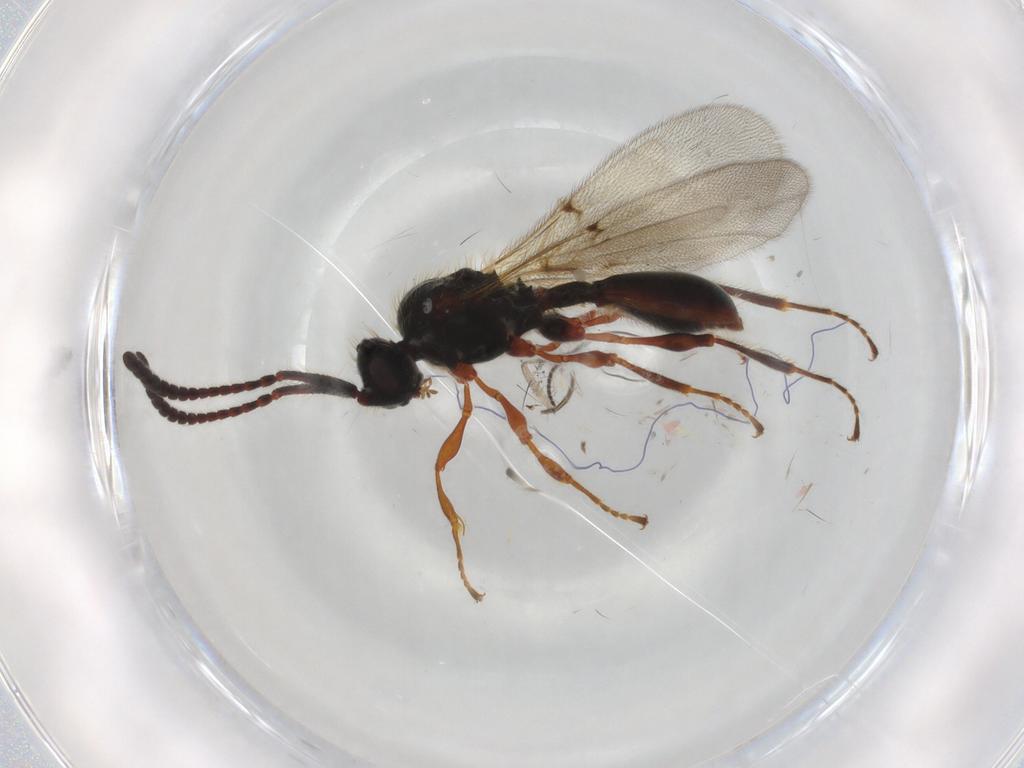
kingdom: Animalia
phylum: Arthropoda
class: Insecta
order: Hymenoptera
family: Diapriidae
